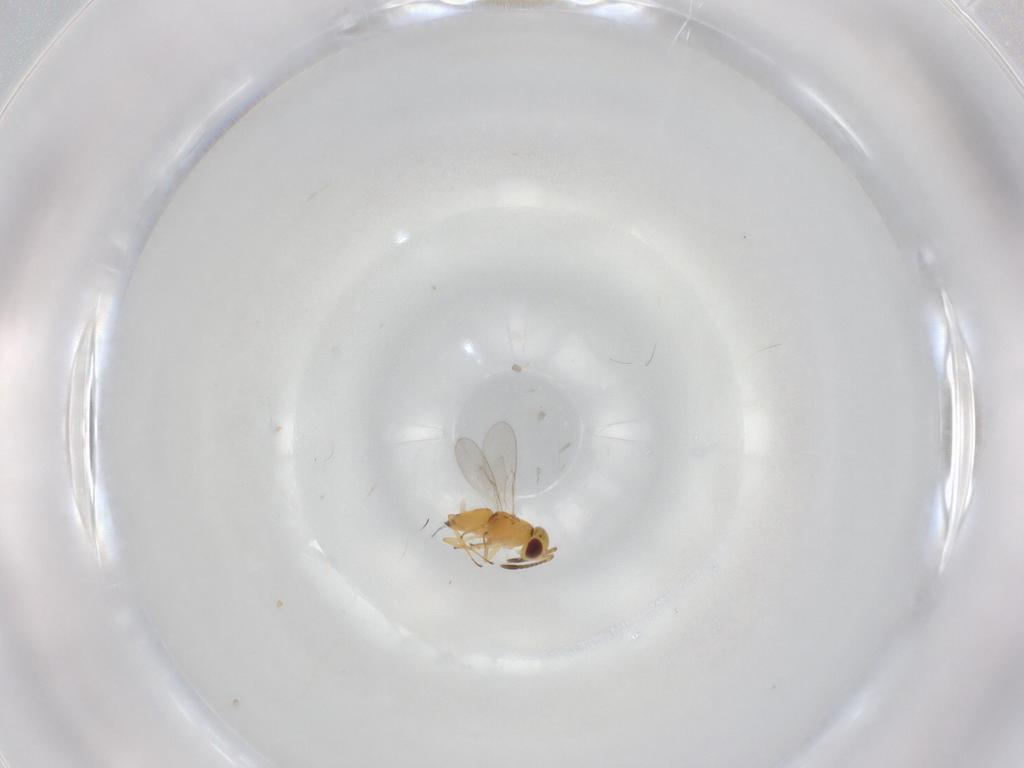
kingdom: Animalia
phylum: Arthropoda
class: Insecta
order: Hymenoptera
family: Encyrtidae
